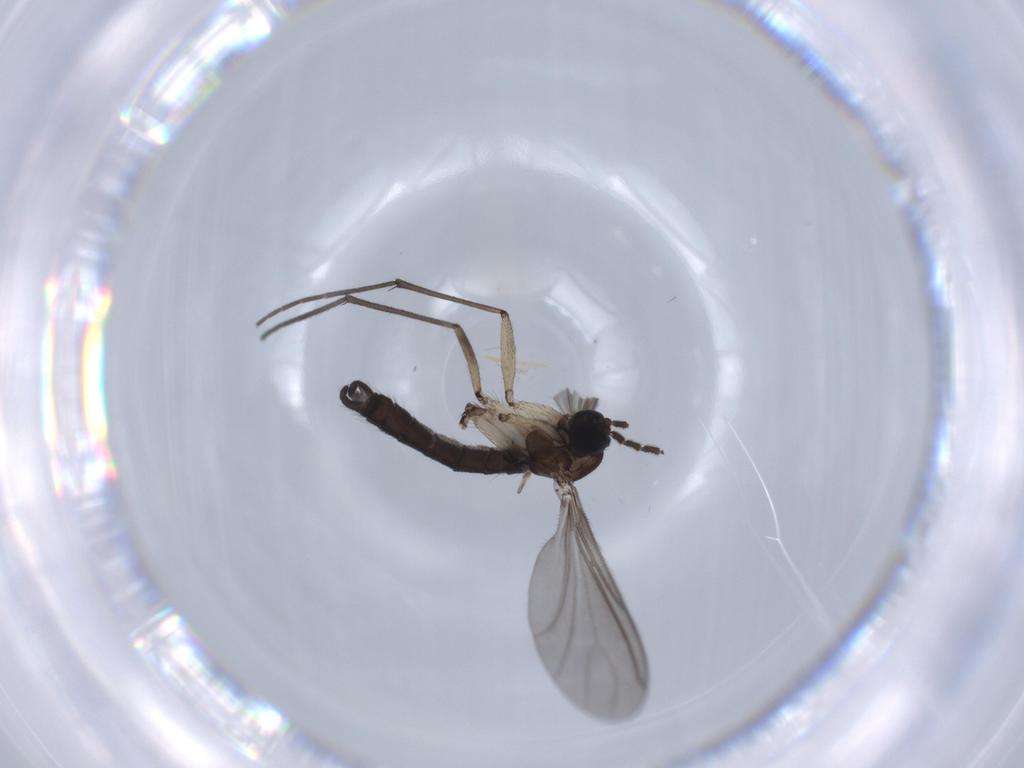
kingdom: Animalia
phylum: Arthropoda
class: Insecta
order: Diptera
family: Sciaridae
